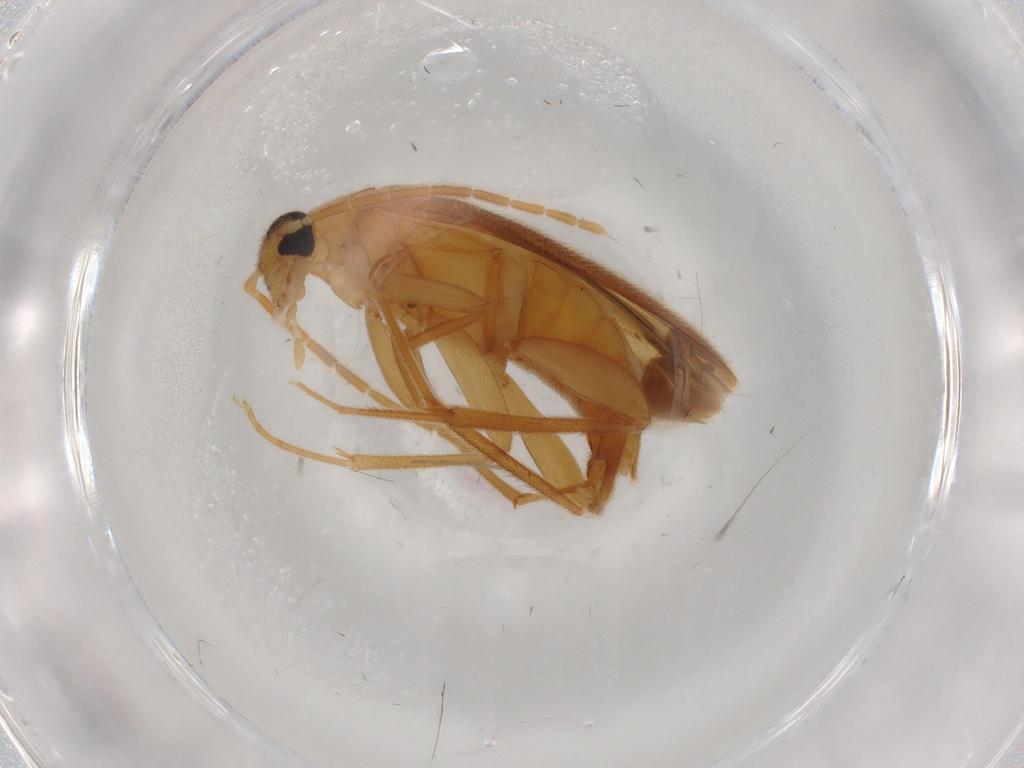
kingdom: Animalia
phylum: Arthropoda
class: Insecta
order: Coleoptera
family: Scraptiidae
